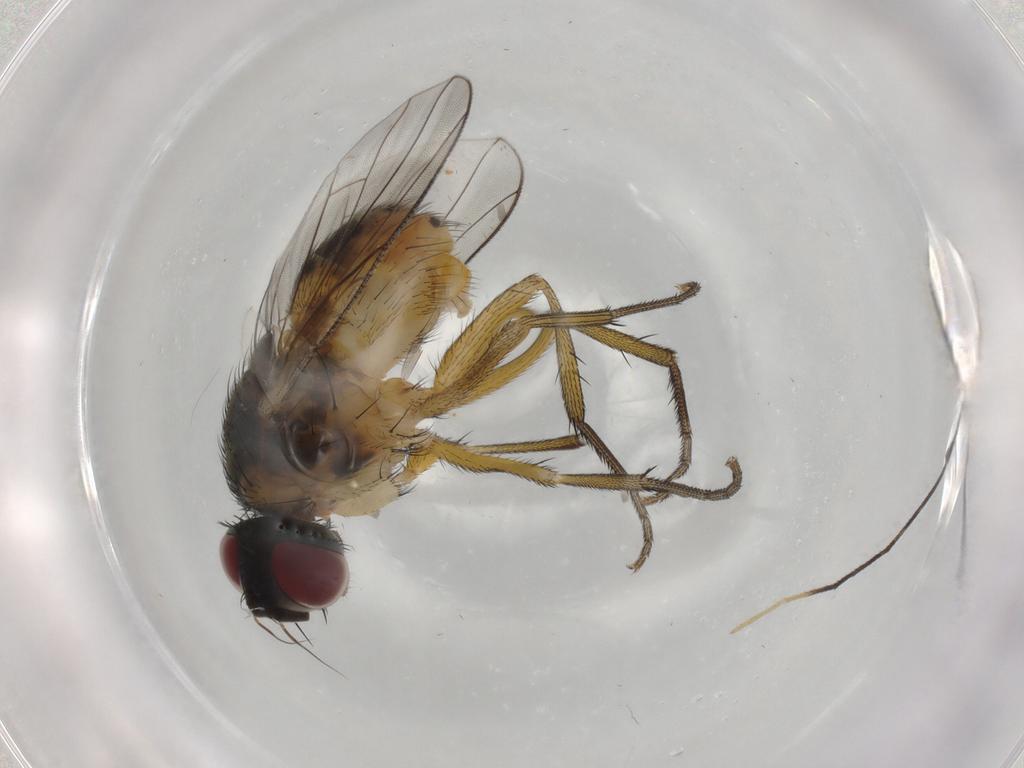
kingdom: Animalia
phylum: Arthropoda
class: Insecta
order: Diptera
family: Muscidae
